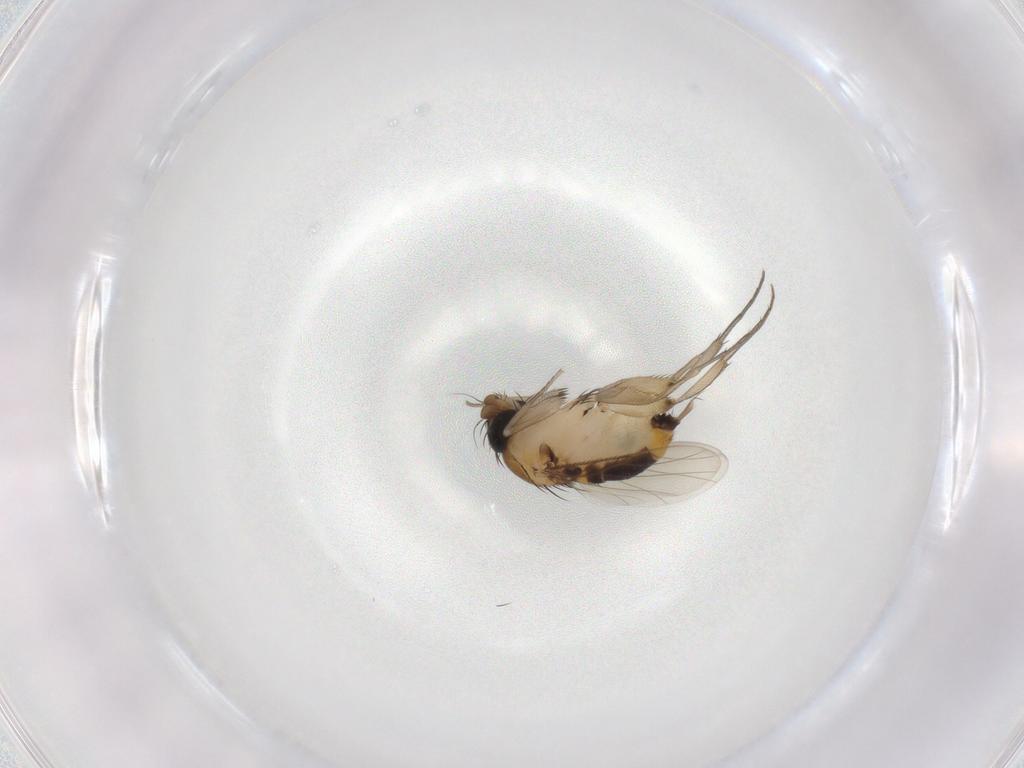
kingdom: Animalia
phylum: Arthropoda
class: Insecta
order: Diptera
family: Phoridae
